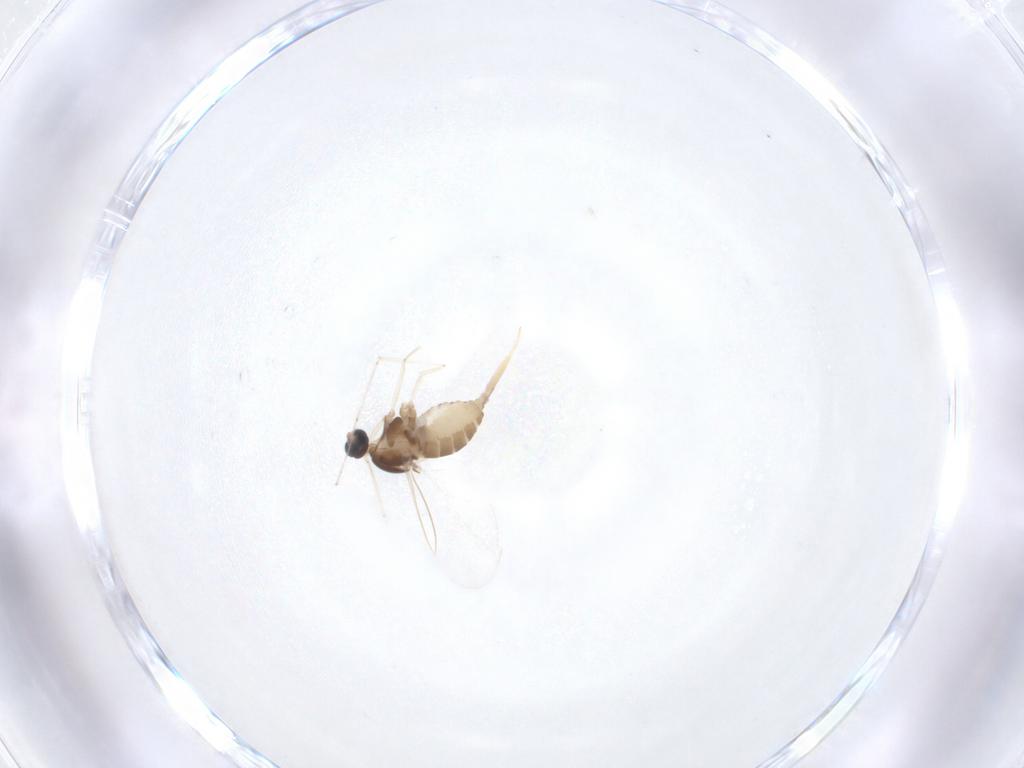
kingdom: Animalia
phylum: Arthropoda
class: Insecta
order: Diptera
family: Cecidomyiidae
